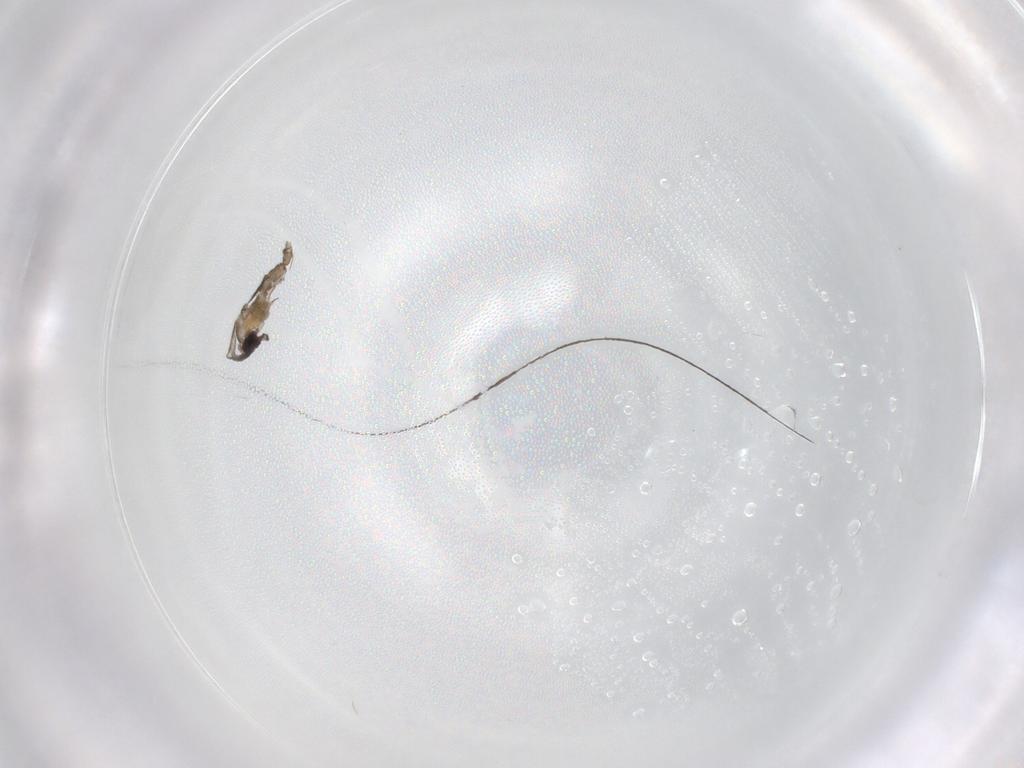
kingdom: Animalia
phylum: Arthropoda
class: Insecta
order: Diptera
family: Cecidomyiidae
